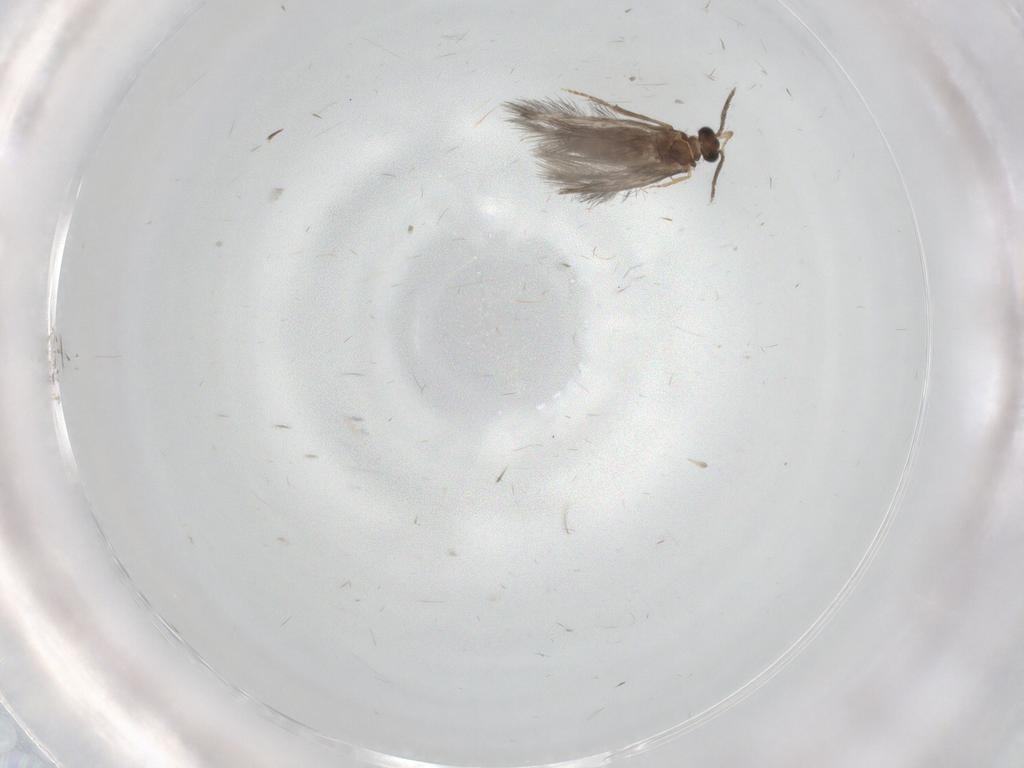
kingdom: Animalia
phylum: Arthropoda
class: Insecta
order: Trichoptera
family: Hydroptilidae
